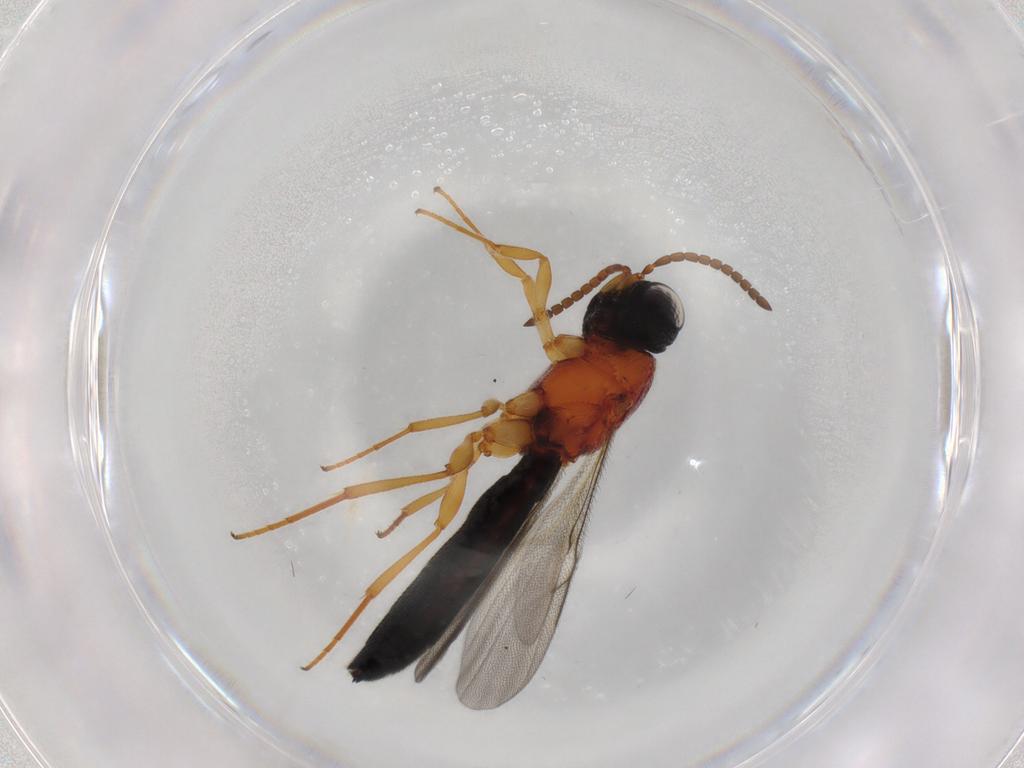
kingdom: Animalia
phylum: Arthropoda
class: Insecta
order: Hymenoptera
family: Scelionidae
